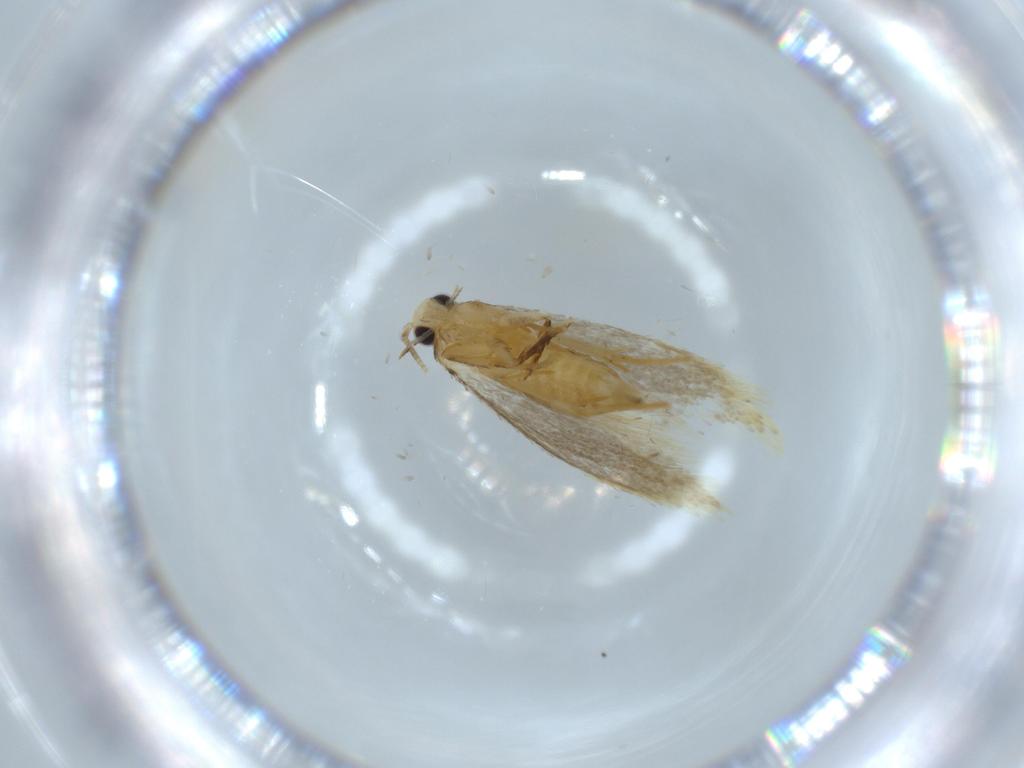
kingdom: Animalia
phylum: Arthropoda
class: Insecta
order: Lepidoptera
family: Tineidae
